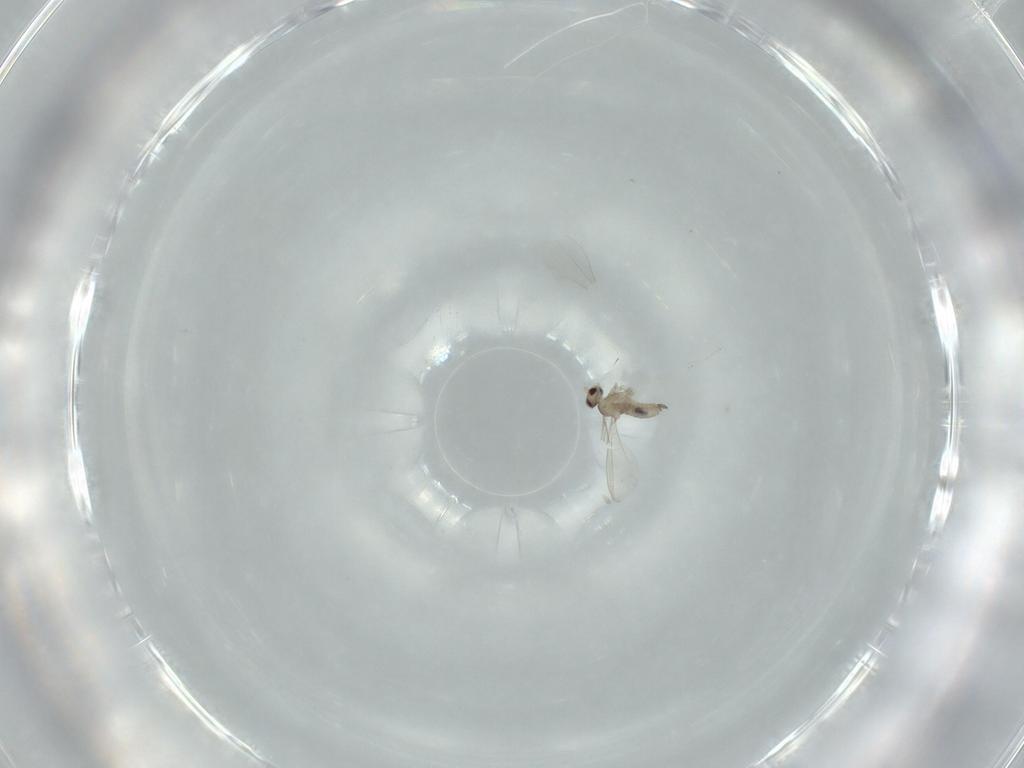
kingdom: Animalia
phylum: Arthropoda
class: Insecta
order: Diptera
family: Cecidomyiidae
